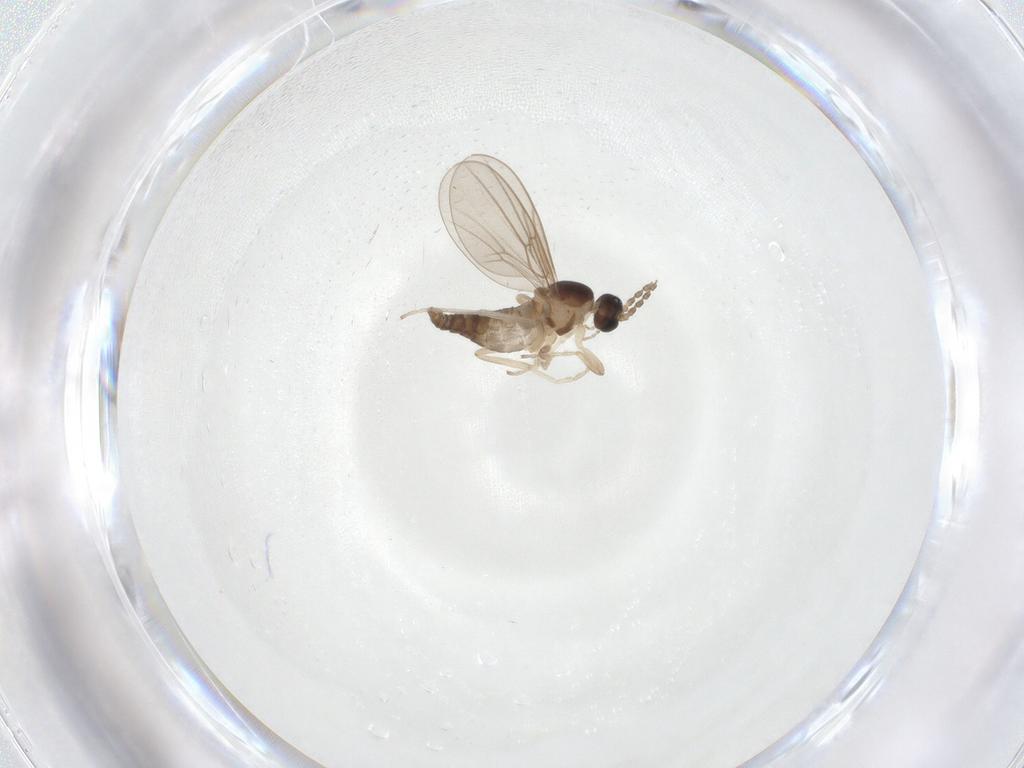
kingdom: Animalia
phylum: Arthropoda
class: Insecta
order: Diptera
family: Cecidomyiidae
